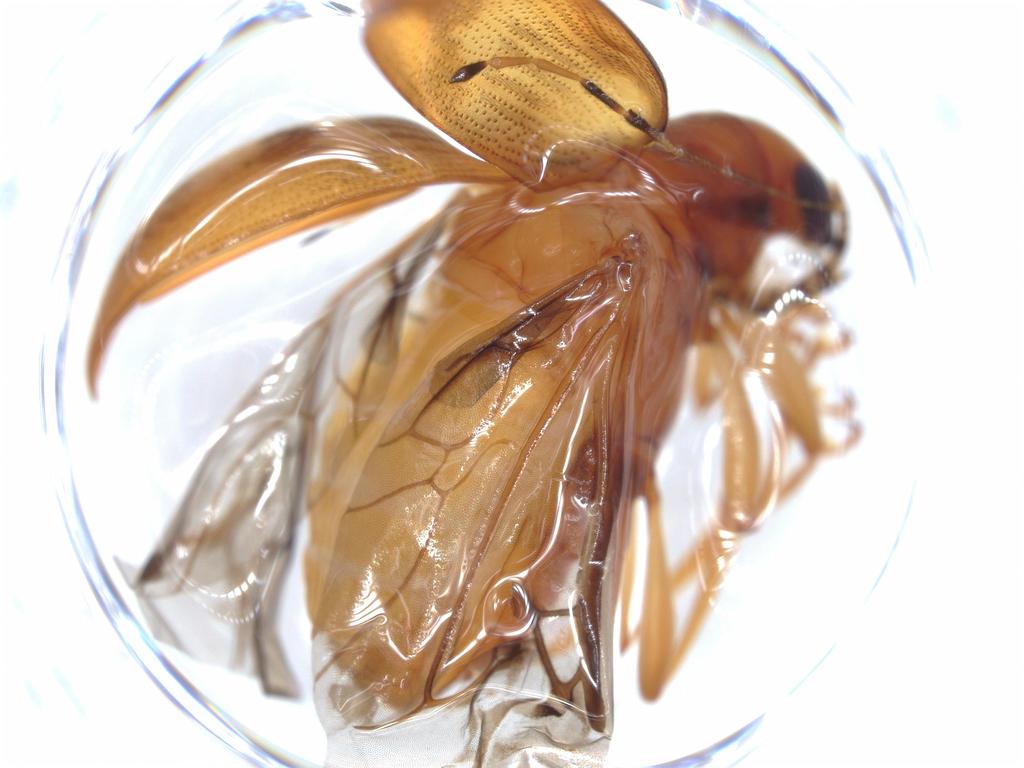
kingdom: Animalia
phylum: Arthropoda
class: Insecta
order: Coleoptera
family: Chrysomelidae
